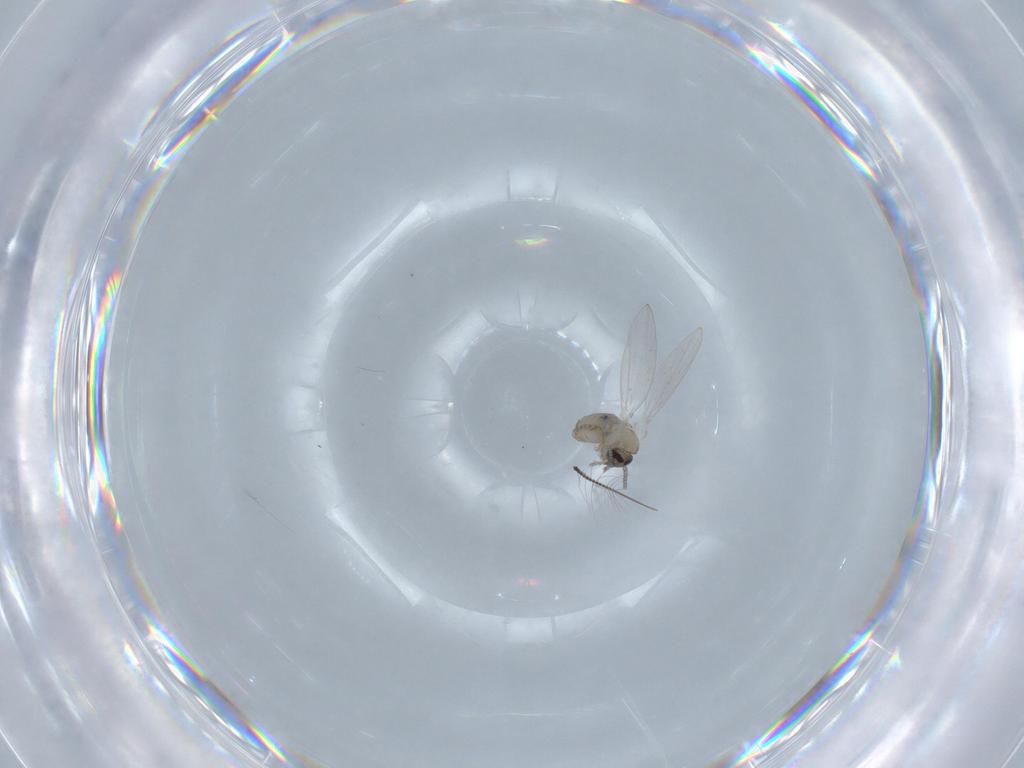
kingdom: Animalia
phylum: Arthropoda
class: Insecta
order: Diptera
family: Psychodidae
